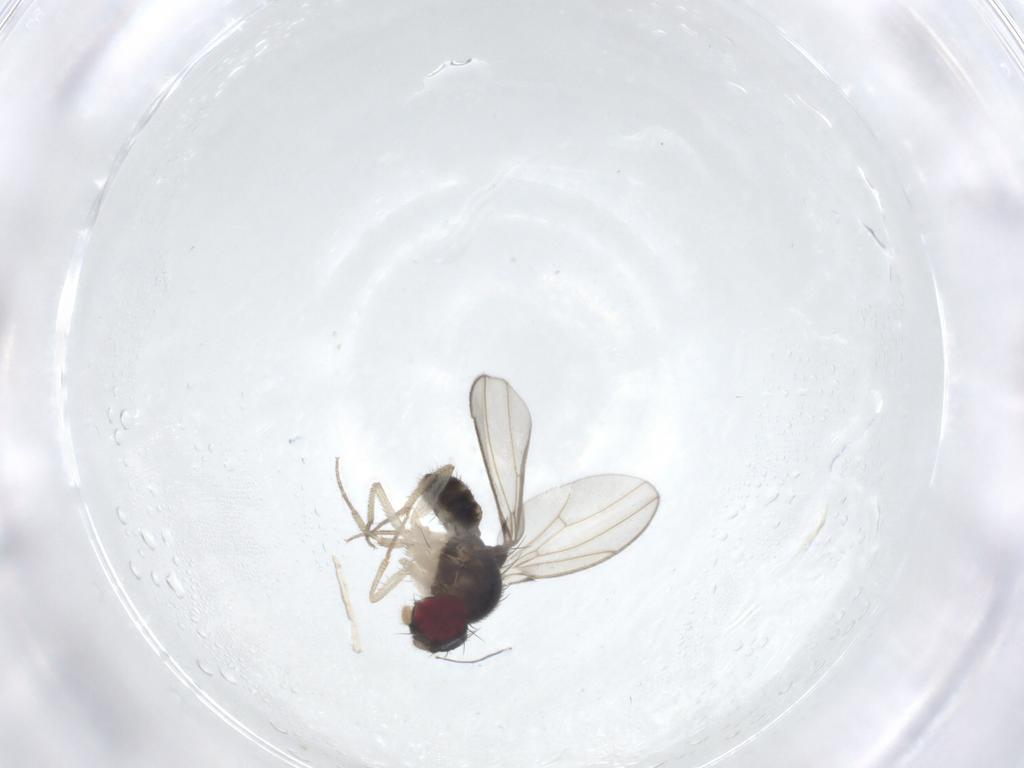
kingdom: Animalia
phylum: Arthropoda
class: Insecta
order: Diptera
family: Drosophilidae
